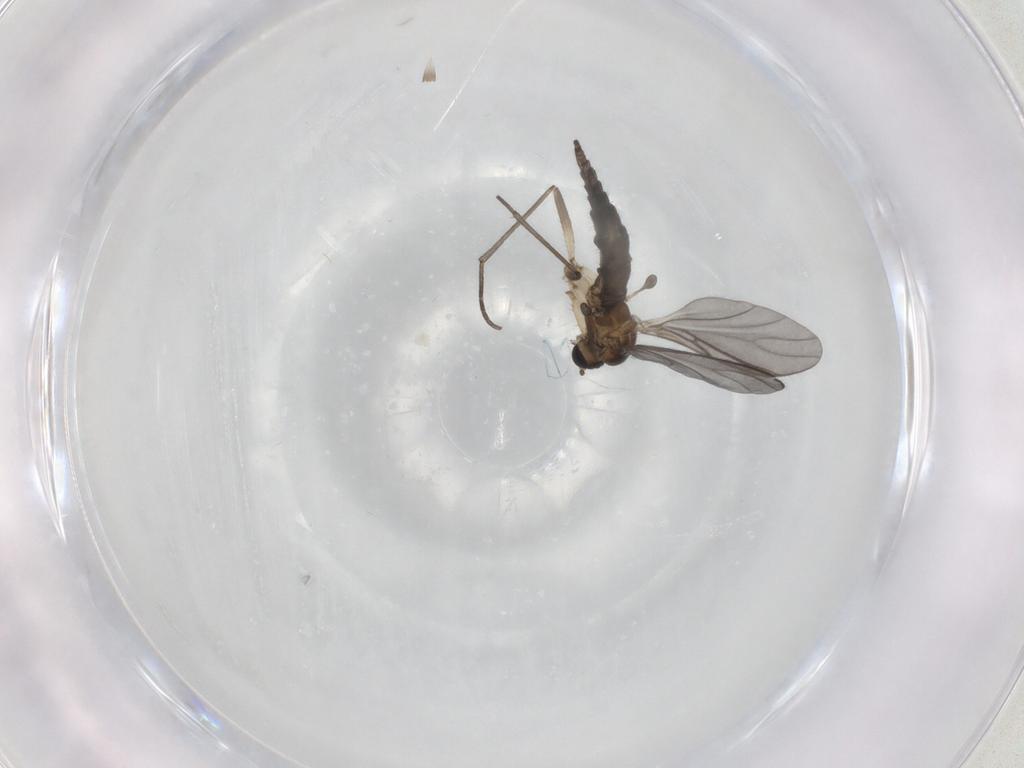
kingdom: Animalia
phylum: Arthropoda
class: Insecta
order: Diptera
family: Sciaridae
